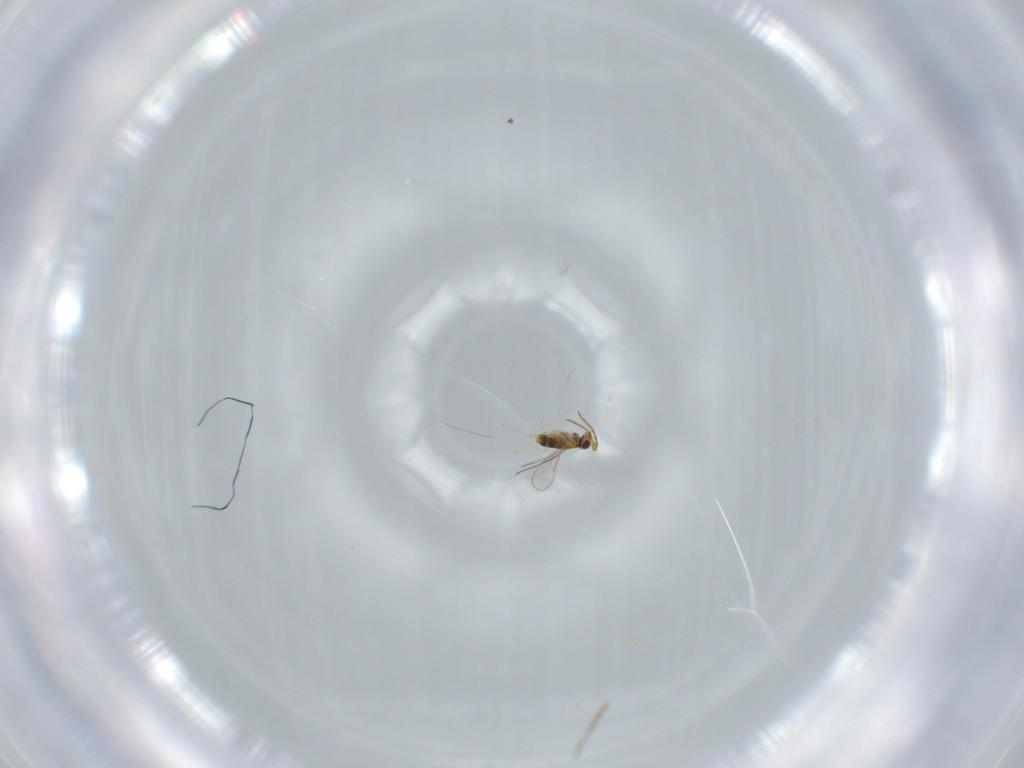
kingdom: Animalia
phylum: Arthropoda
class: Insecta
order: Hymenoptera
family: Aphelinidae
